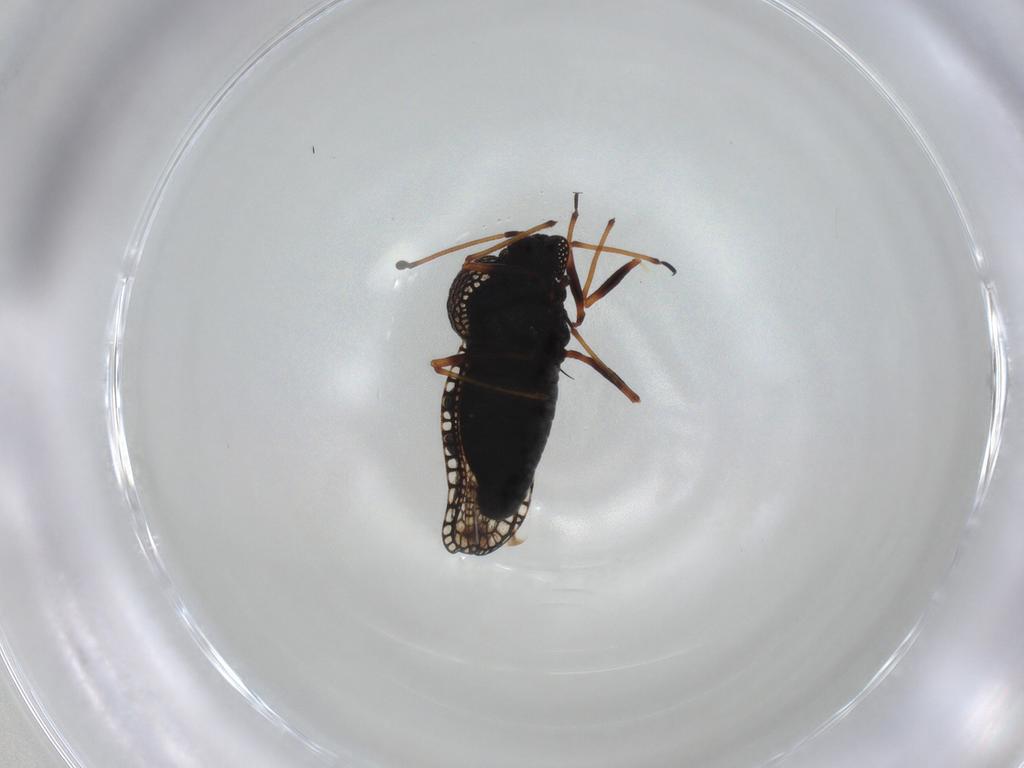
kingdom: Animalia
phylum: Arthropoda
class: Insecta
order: Hemiptera
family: Tingidae
